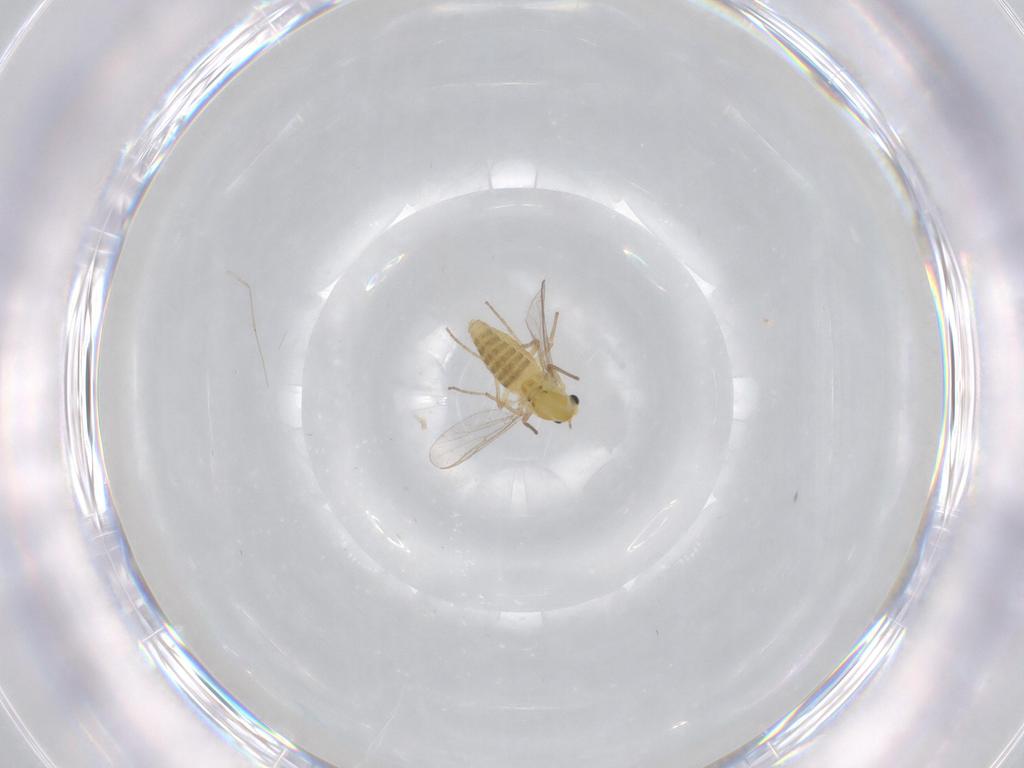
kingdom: Animalia
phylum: Arthropoda
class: Insecta
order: Diptera
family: Chironomidae
